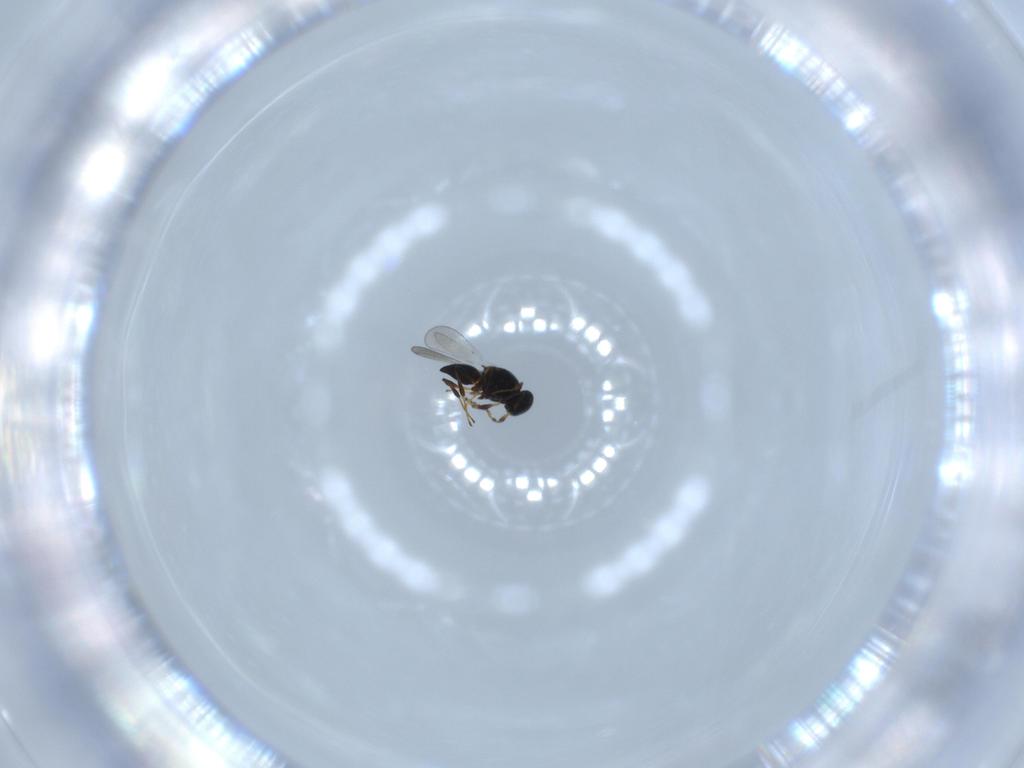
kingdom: Animalia
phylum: Arthropoda
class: Insecta
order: Hymenoptera
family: Platygastridae
